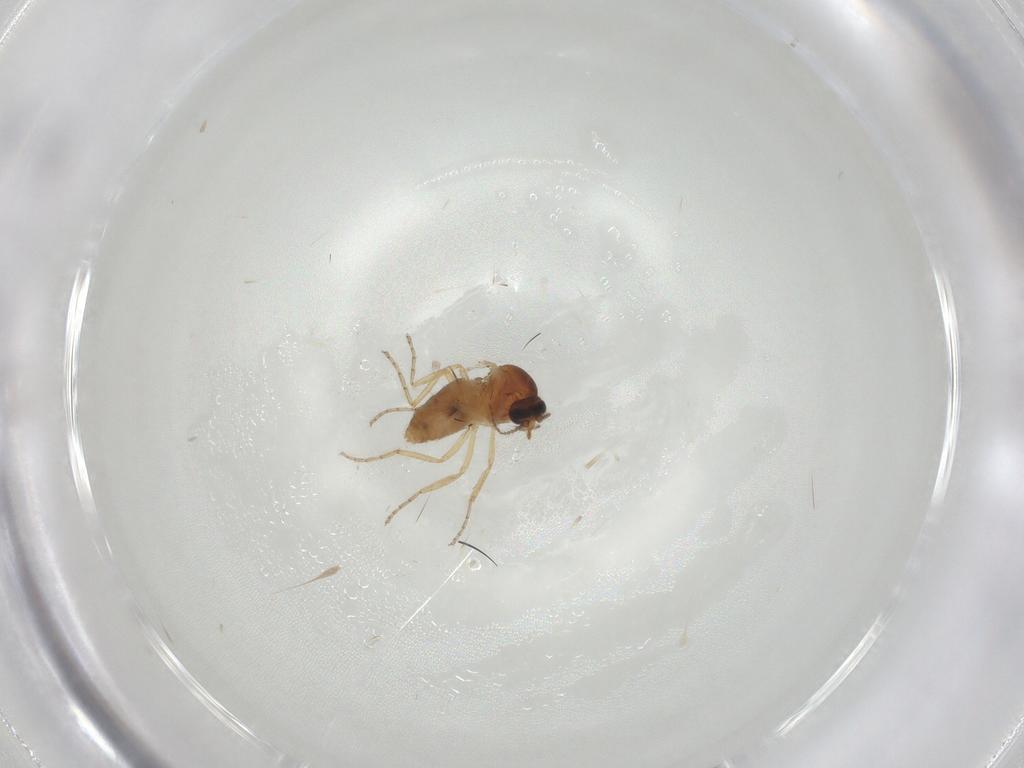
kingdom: Animalia
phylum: Arthropoda
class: Insecta
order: Diptera
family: Ceratopogonidae
